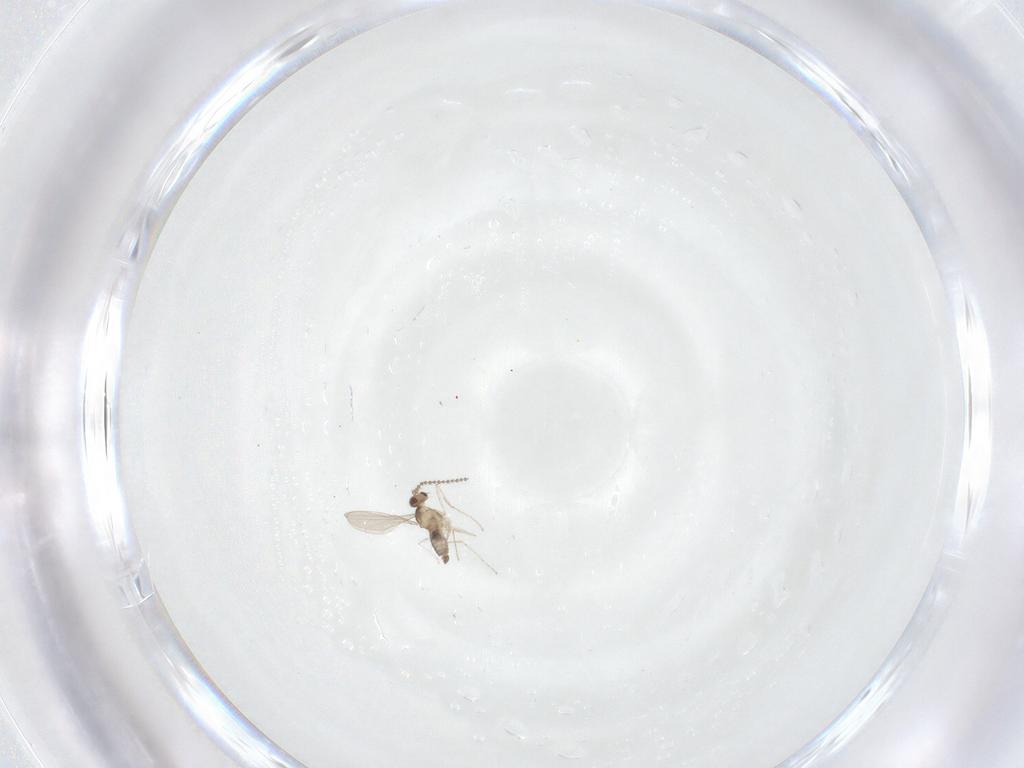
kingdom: Animalia
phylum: Arthropoda
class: Insecta
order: Diptera
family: Cecidomyiidae
